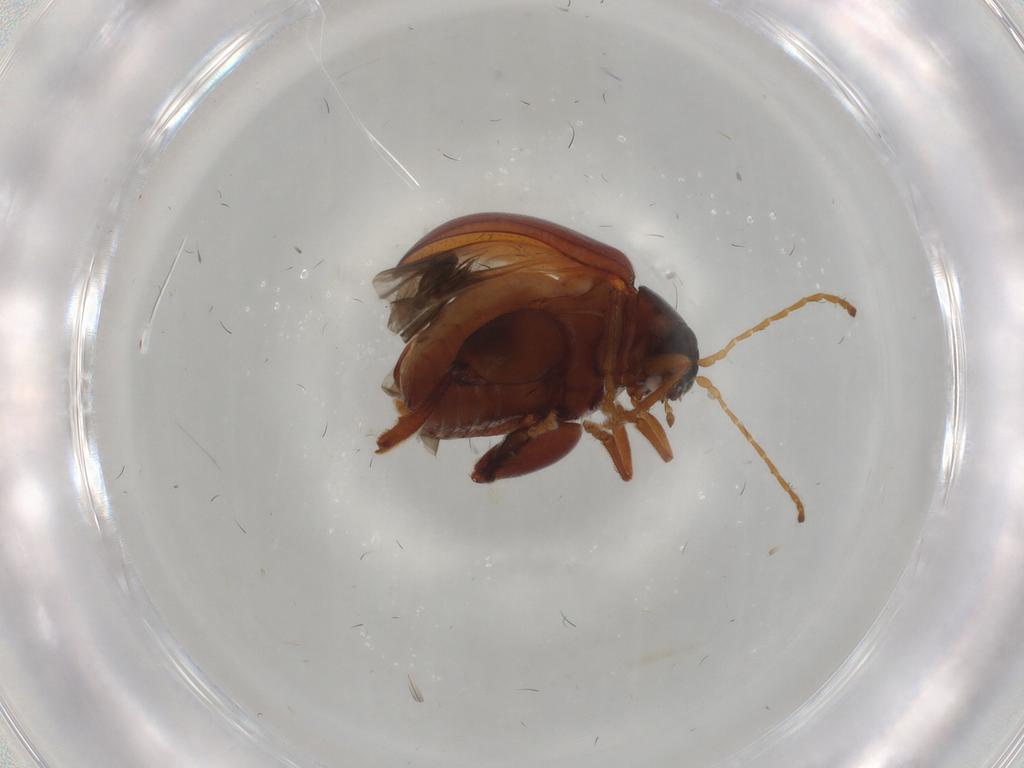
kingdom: Animalia
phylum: Arthropoda
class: Insecta
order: Coleoptera
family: Chrysomelidae
